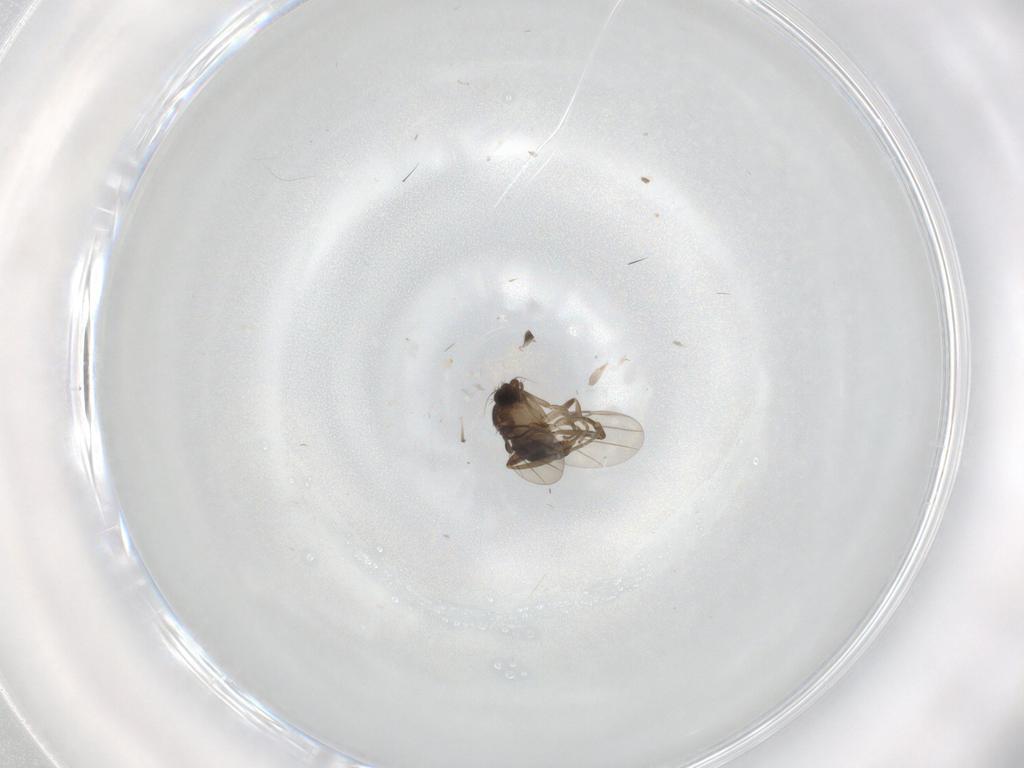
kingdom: Animalia
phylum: Arthropoda
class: Insecta
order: Diptera
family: Phoridae
